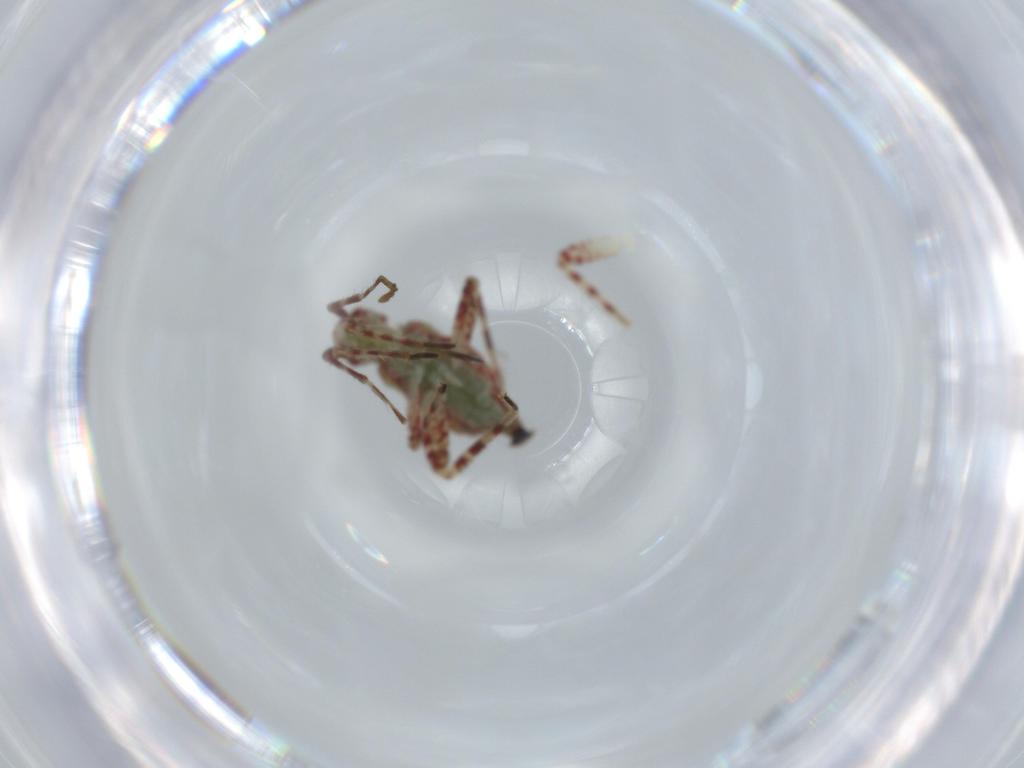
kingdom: Animalia
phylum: Arthropoda
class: Insecta
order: Hemiptera
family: Miridae
